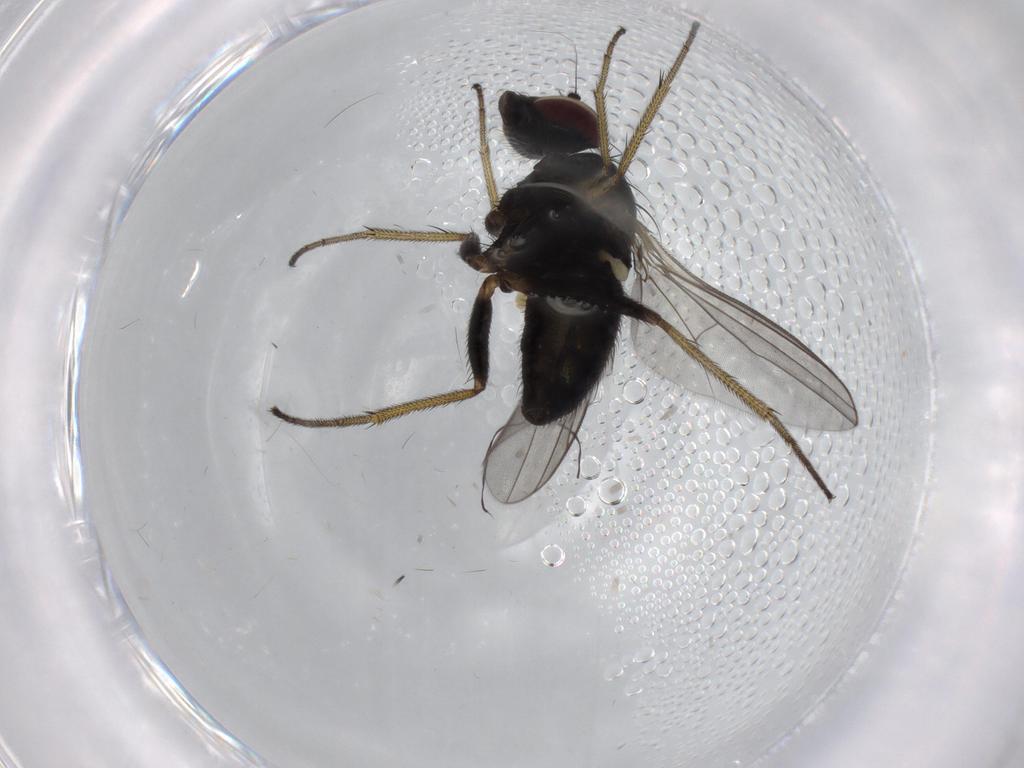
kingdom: Animalia
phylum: Arthropoda
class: Insecta
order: Diptera
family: Dolichopodidae
